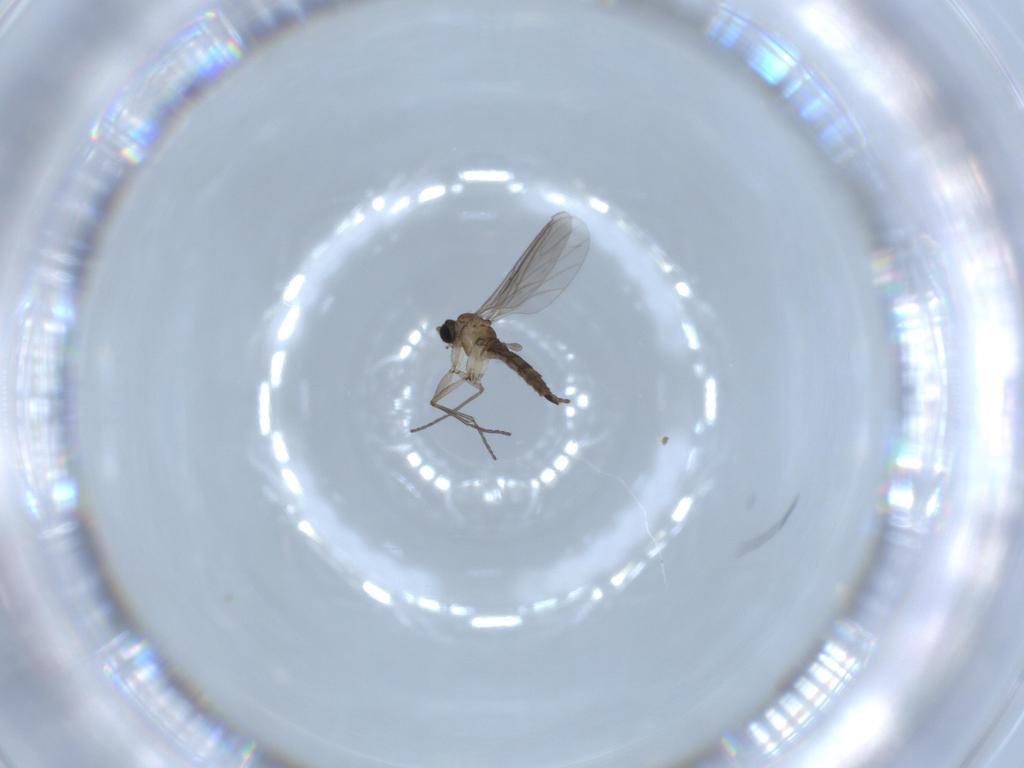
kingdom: Animalia
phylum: Arthropoda
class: Insecta
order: Diptera
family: Sciaridae
